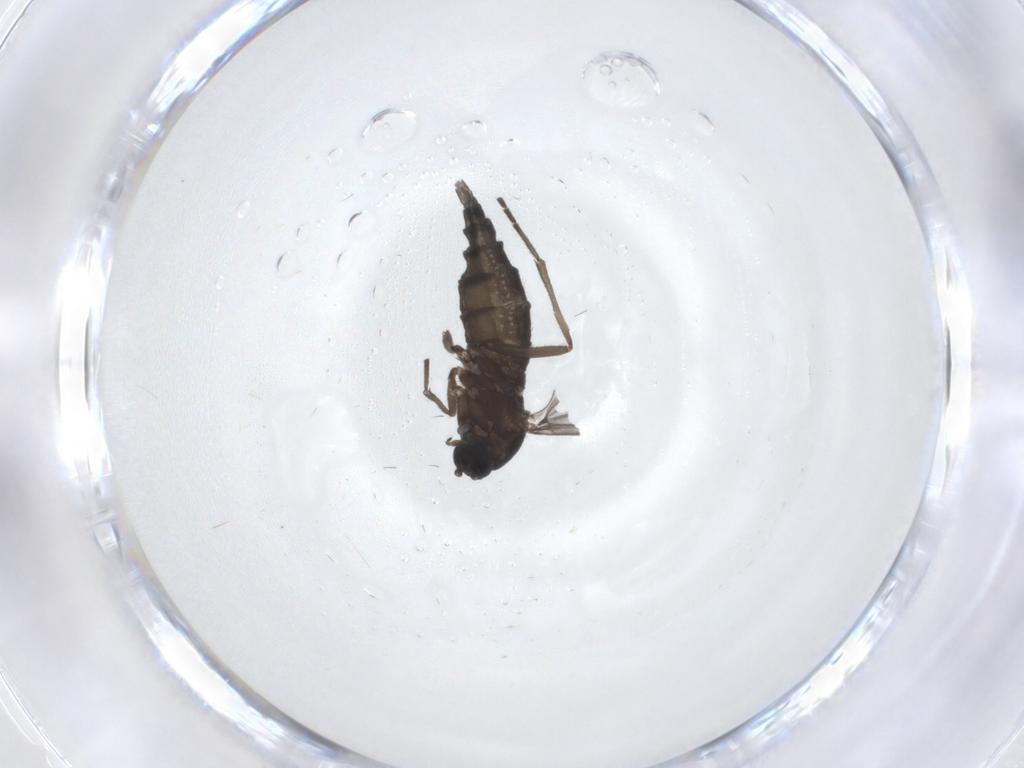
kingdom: Animalia
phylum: Arthropoda
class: Insecta
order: Diptera
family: Sciaridae
